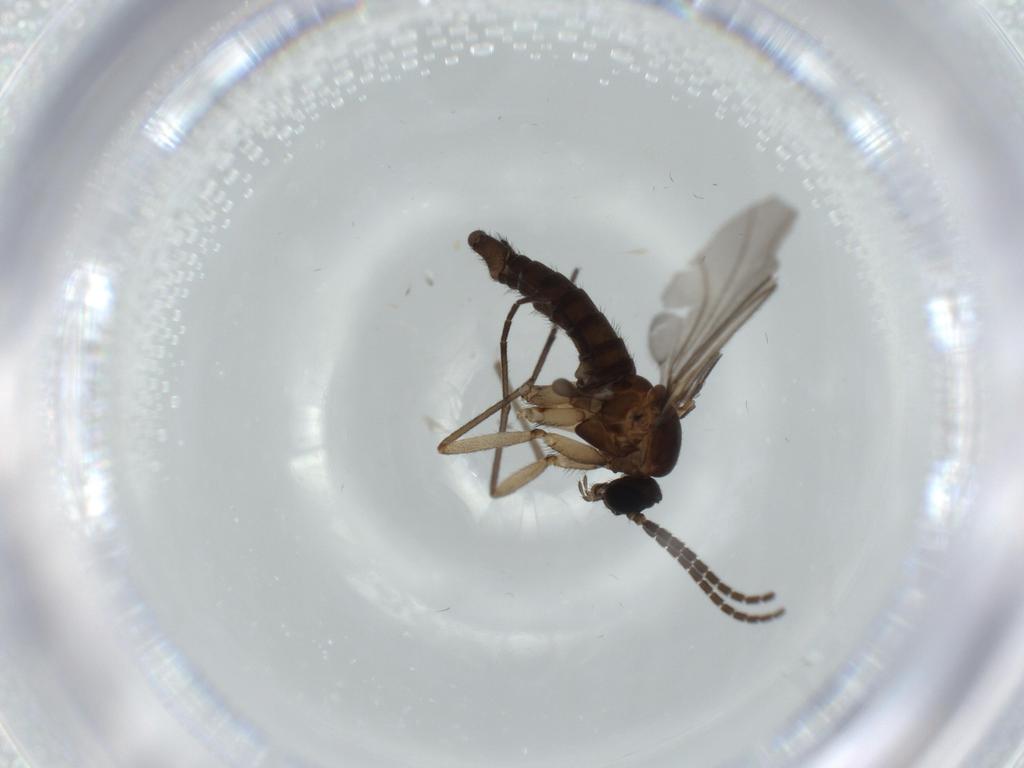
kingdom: Animalia
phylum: Arthropoda
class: Insecta
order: Diptera
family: Sciaridae
